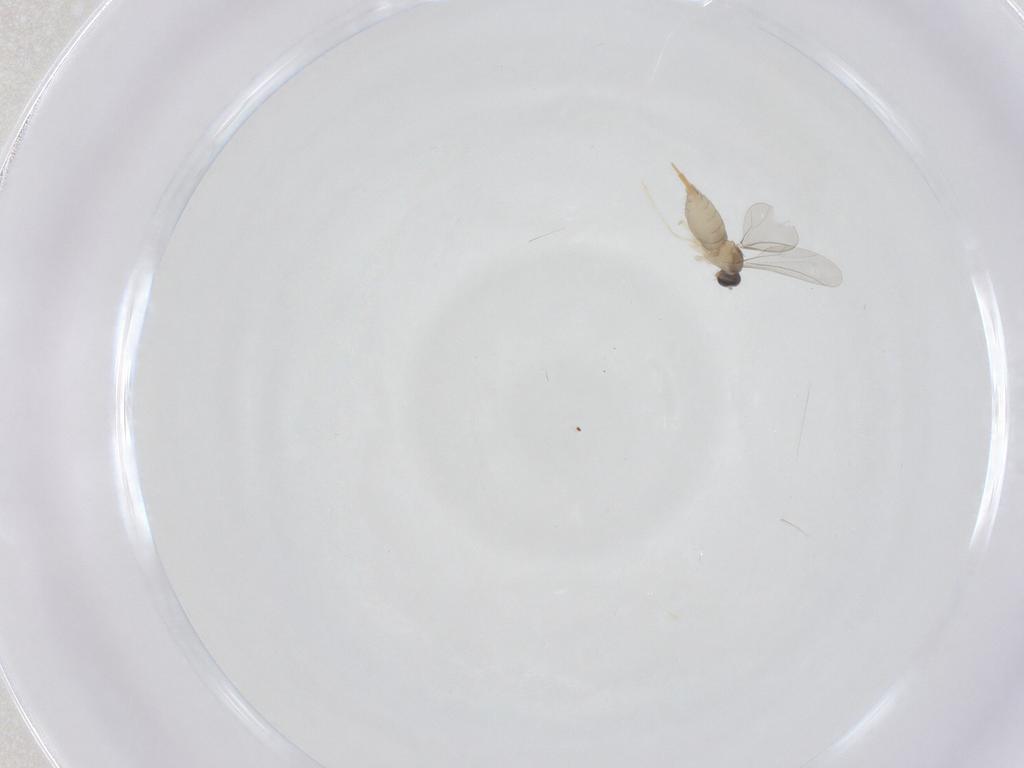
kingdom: Animalia
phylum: Arthropoda
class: Insecta
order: Diptera
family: Cecidomyiidae
